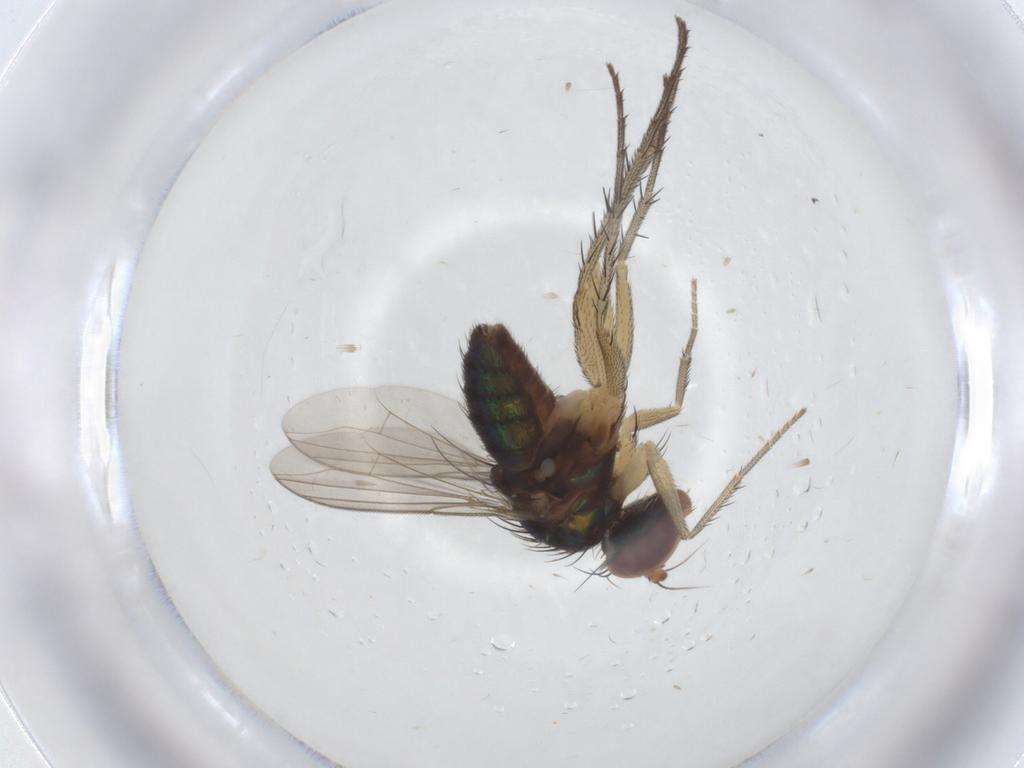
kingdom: Animalia
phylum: Arthropoda
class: Insecta
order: Diptera
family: Dolichopodidae
